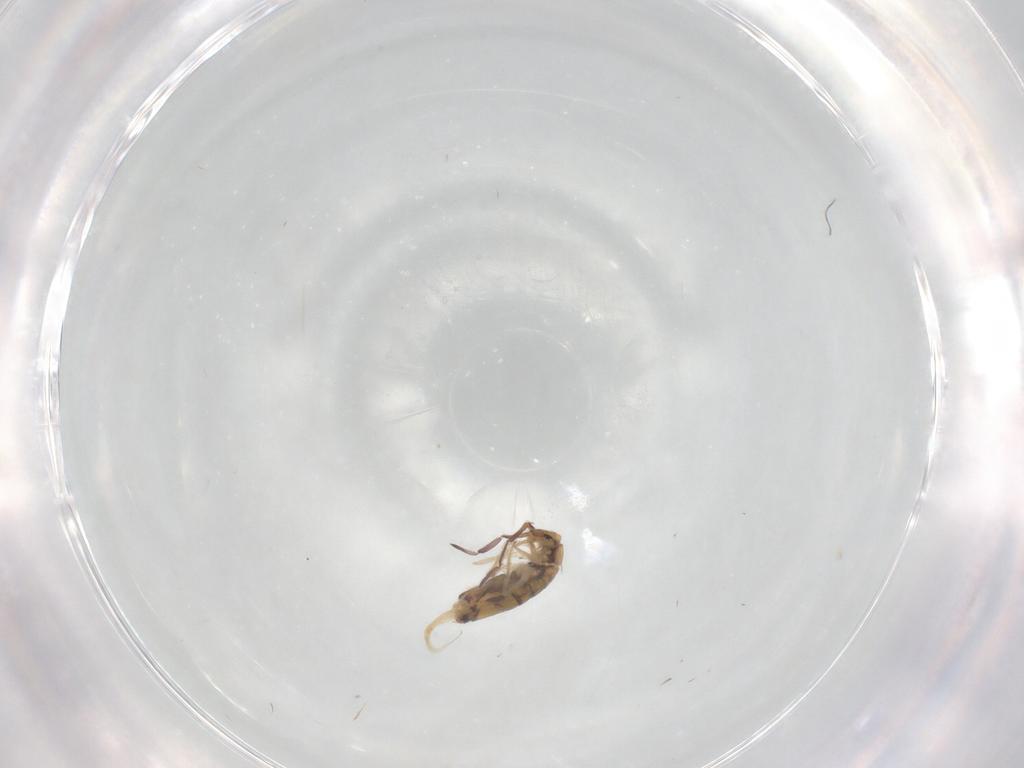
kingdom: Animalia
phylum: Arthropoda
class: Collembola
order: Entomobryomorpha
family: Entomobryidae
